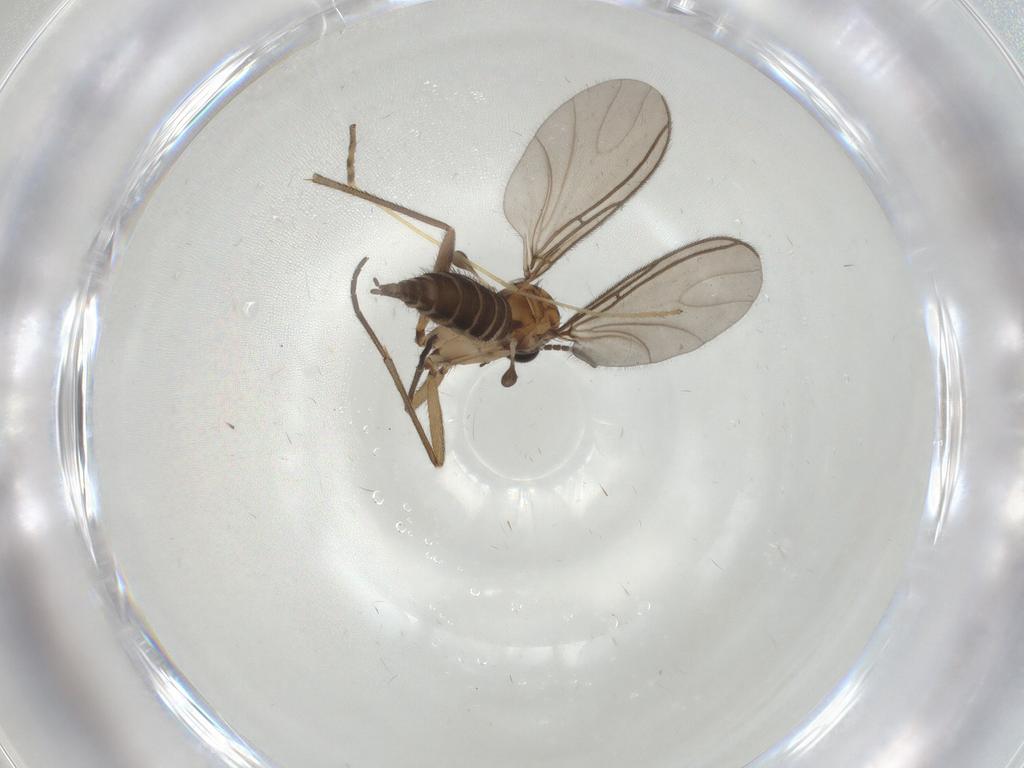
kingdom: Animalia
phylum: Arthropoda
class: Insecta
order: Diptera
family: Sciaridae
